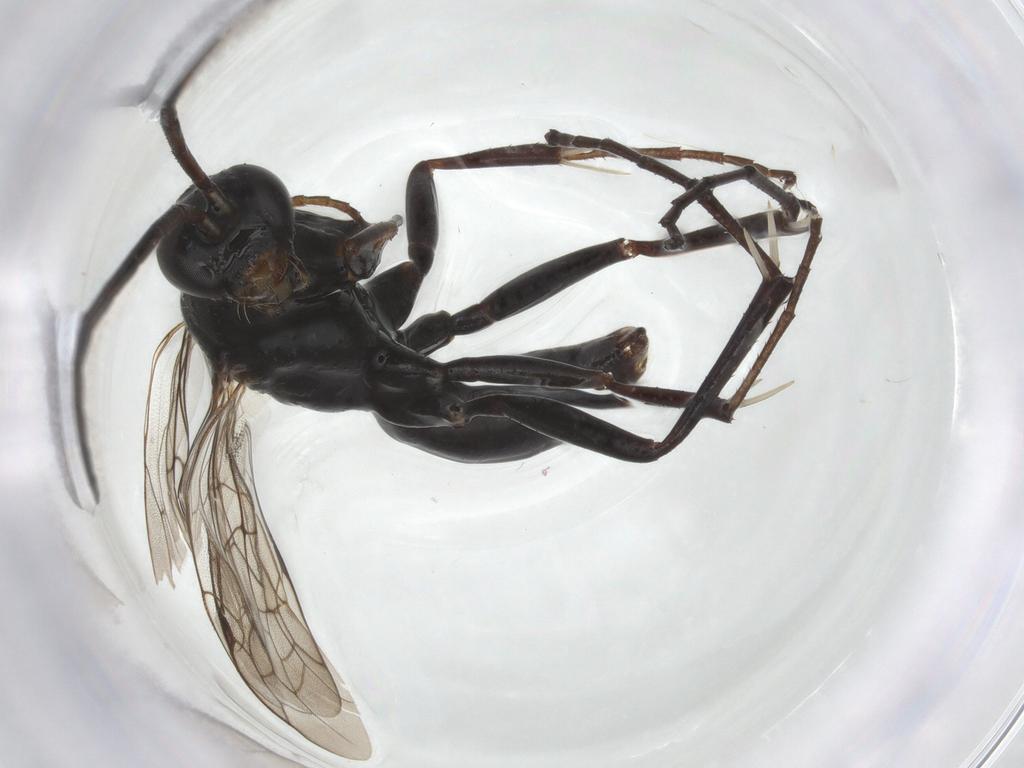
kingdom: Animalia
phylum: Arthropoda
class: Insecta
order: Hymenoptera
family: Pompilidae
